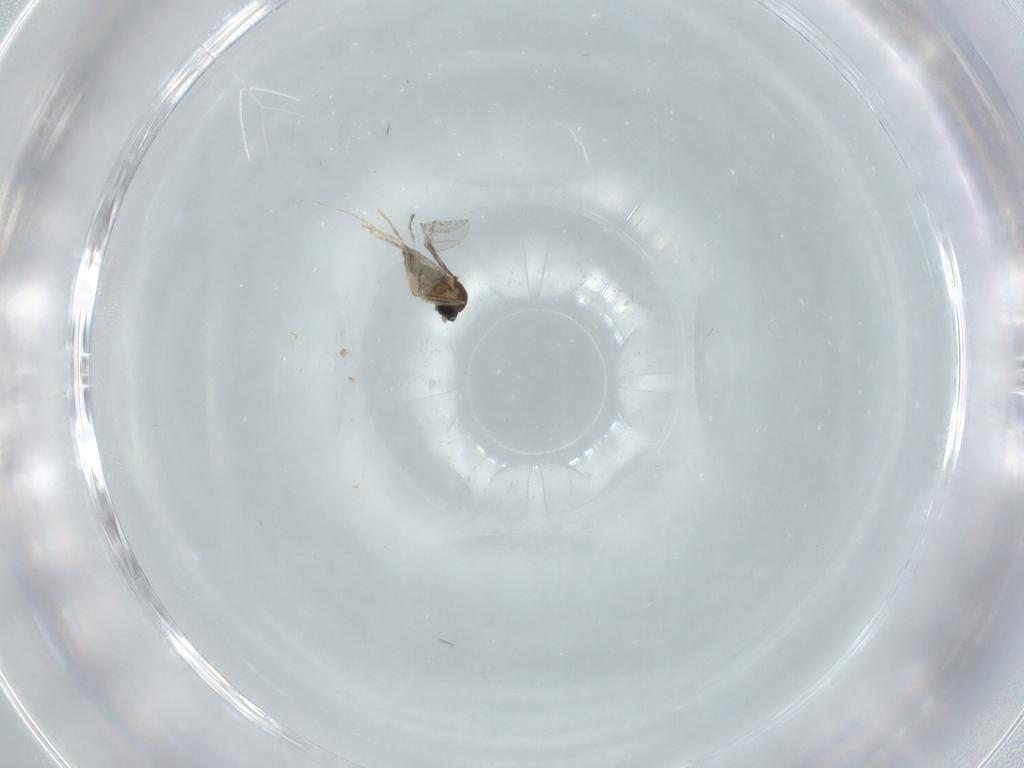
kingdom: Animalia
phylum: Arthropoda
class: Insecta
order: Diptera
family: Cecidomyiidae
